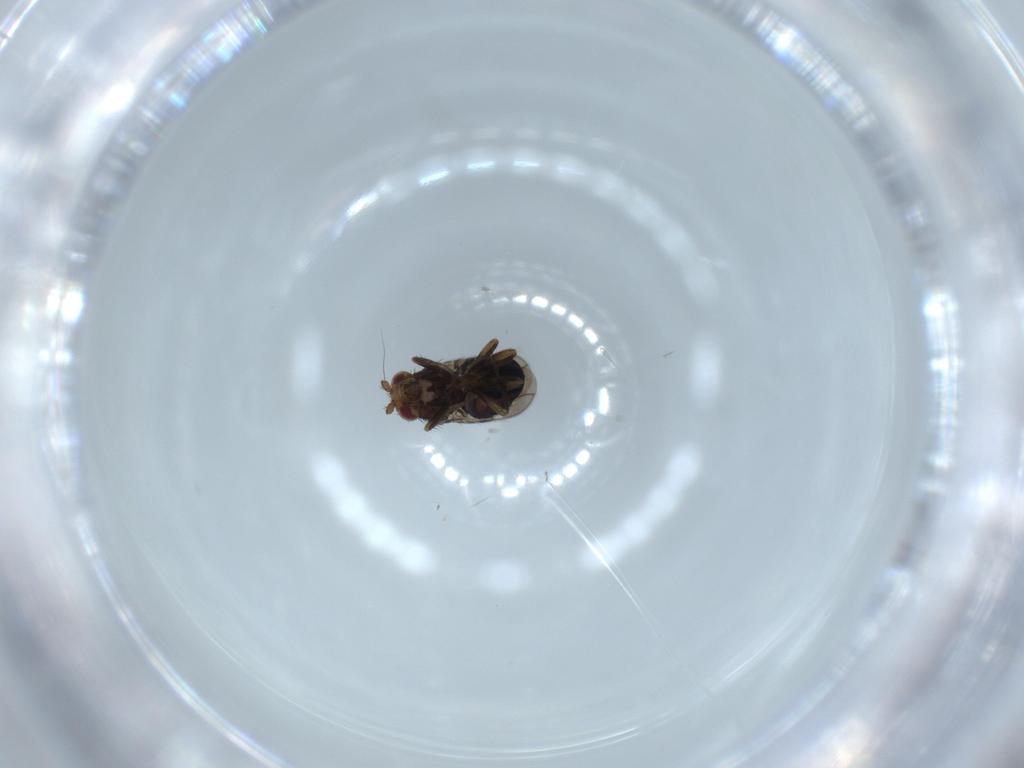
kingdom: Animalia
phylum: Arthropoda
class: Insecta
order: Diptera
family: Sphaeroceridae
